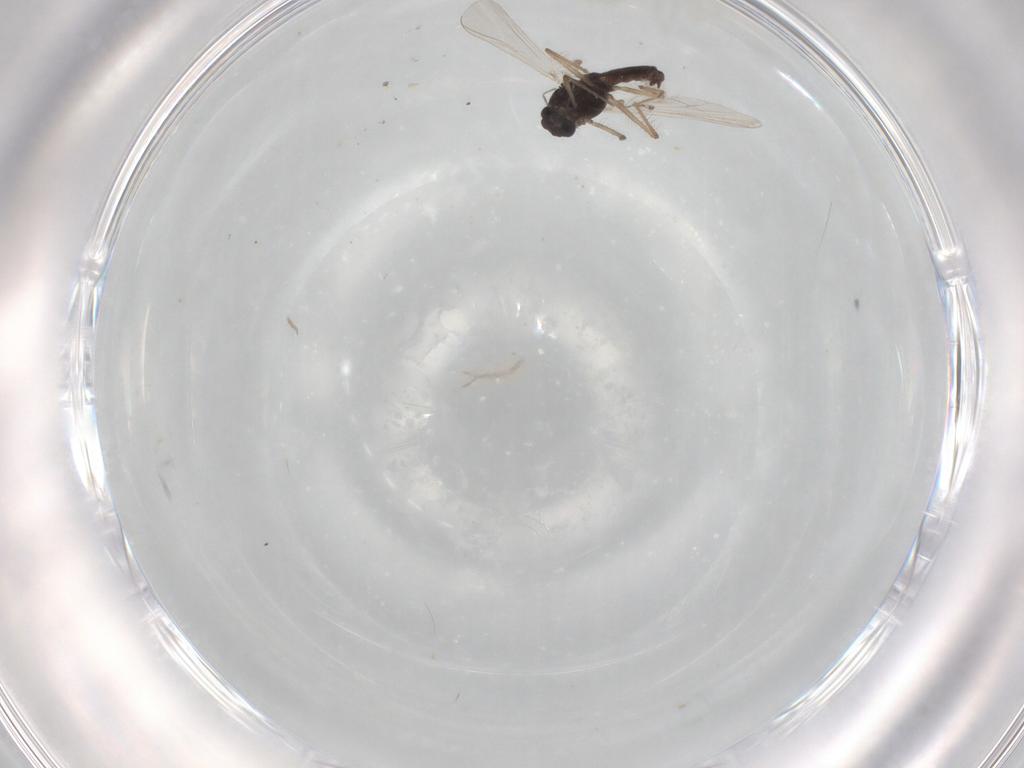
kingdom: Animalia
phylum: Arthropoda
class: Insecta
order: Diptera
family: Chironomidae
